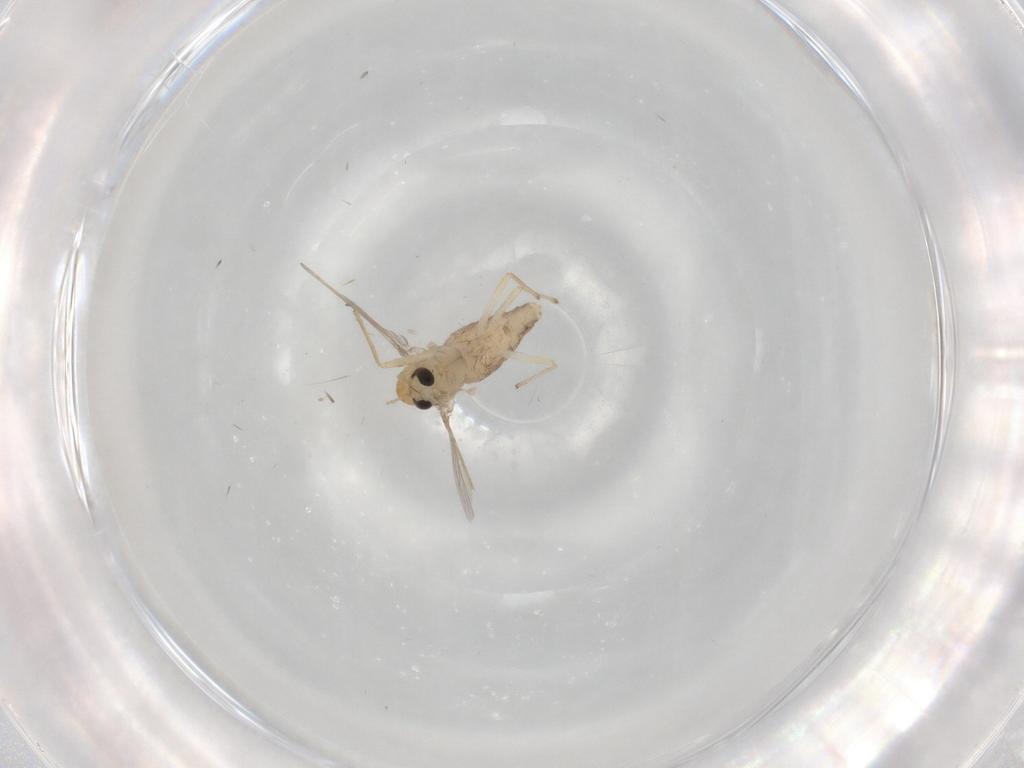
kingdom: Animalia
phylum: Arthropoda
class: Insecta
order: Diptera
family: Chironomidae
